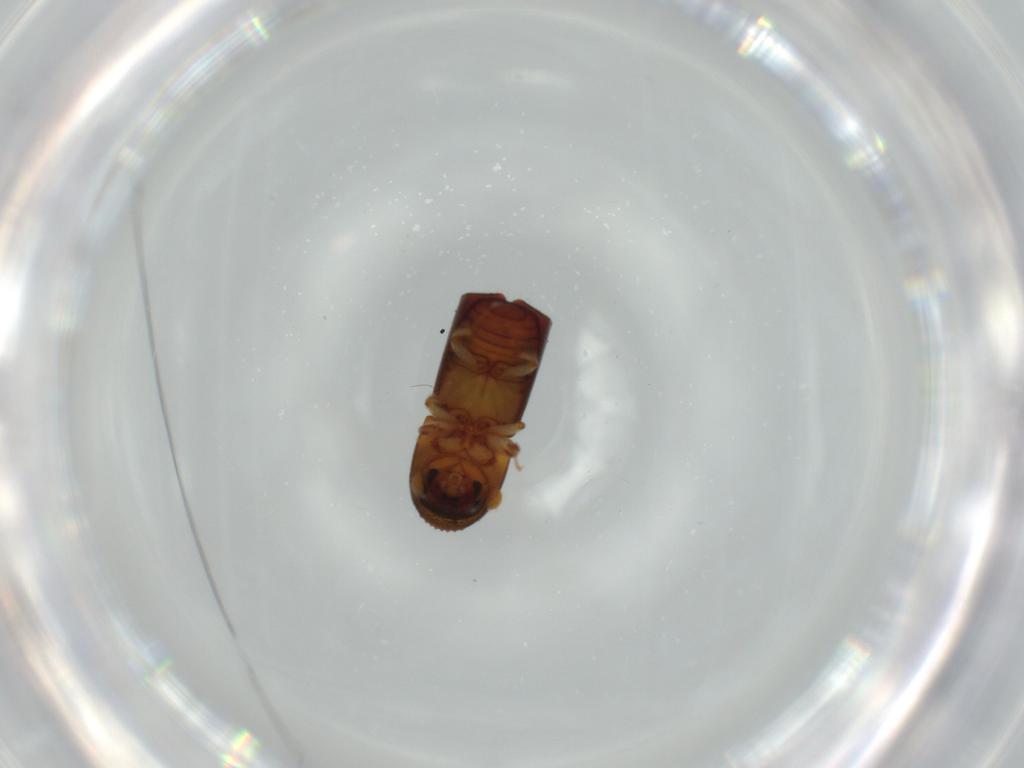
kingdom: Animalia
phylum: Arthropoda
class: Insecta
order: Coleoptera
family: Curculionidae
